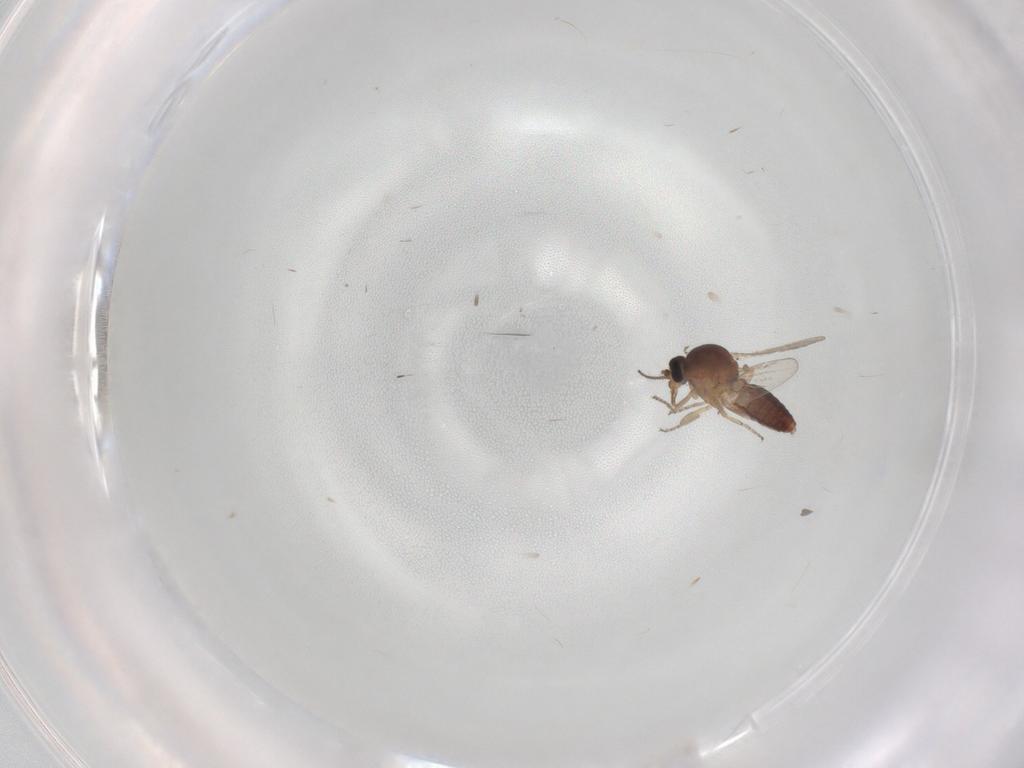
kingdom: Animalia
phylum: Arthropoda
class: Insecta
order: Diptera
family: Ceratopogonidae
